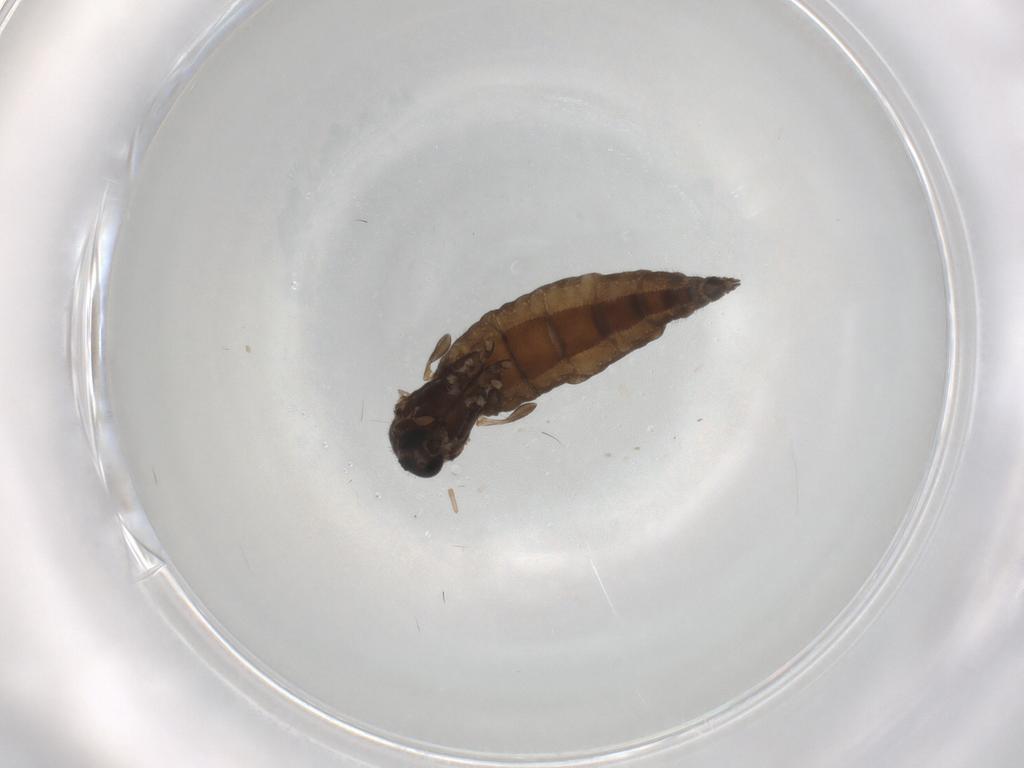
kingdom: Animalia
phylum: Arthropoda
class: Insecta
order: Diptera
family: Sciaridae
